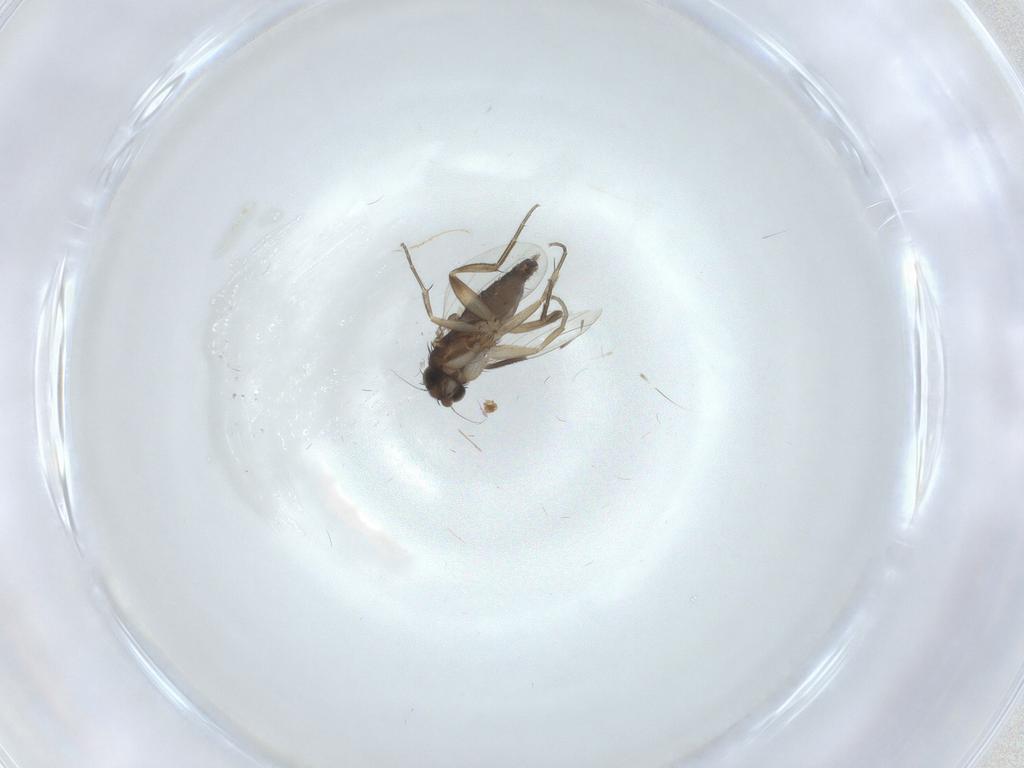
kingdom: Animalia
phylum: Arthropoda
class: Insecta
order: Diptera
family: Phoridae
